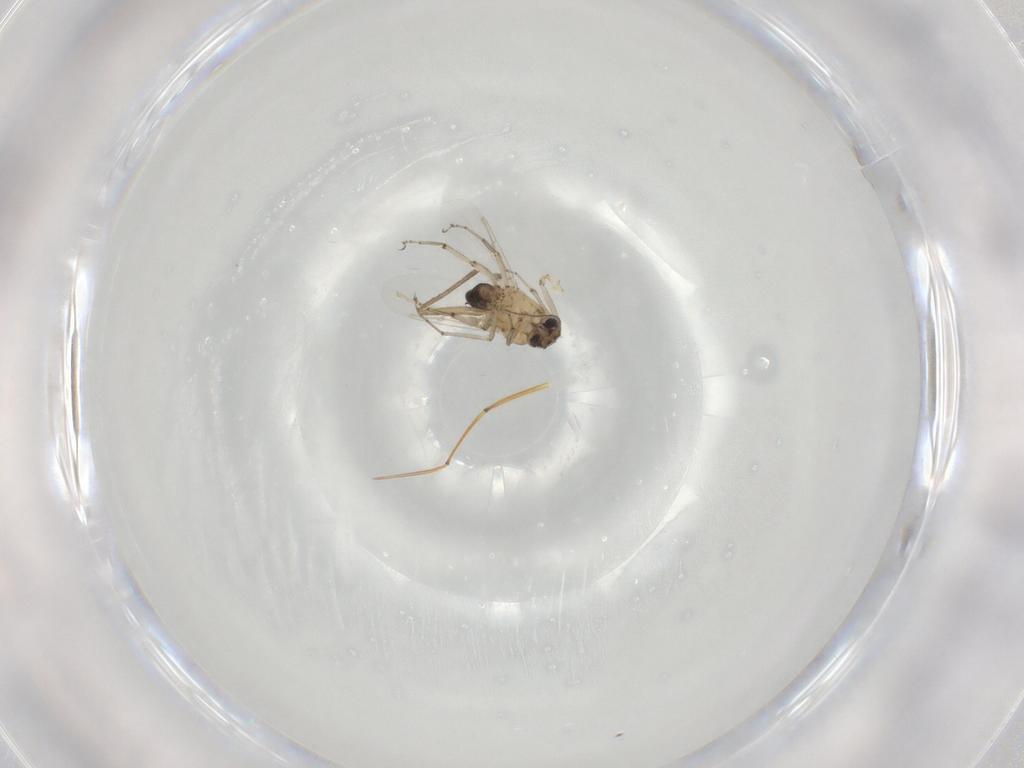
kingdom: Animalia
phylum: Arthropoda
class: Insecta
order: Diptera
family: Ceratopogonidae
